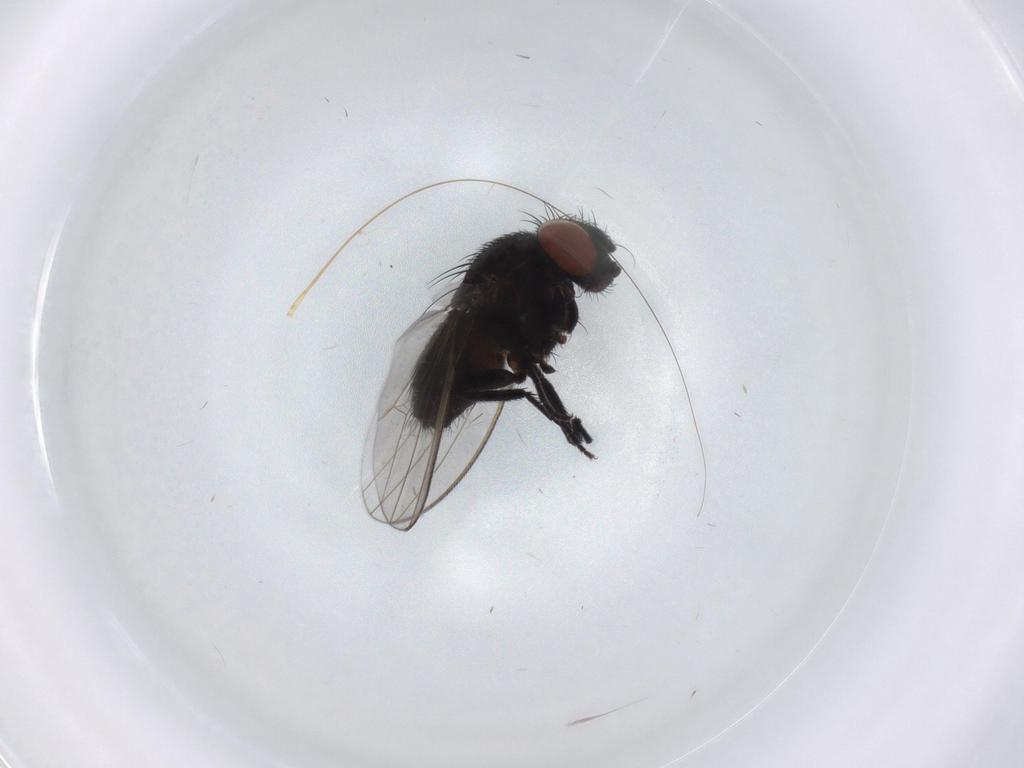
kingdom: Animalia
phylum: Arthropoda
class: Insecta
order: Diptera
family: Milichiidae
